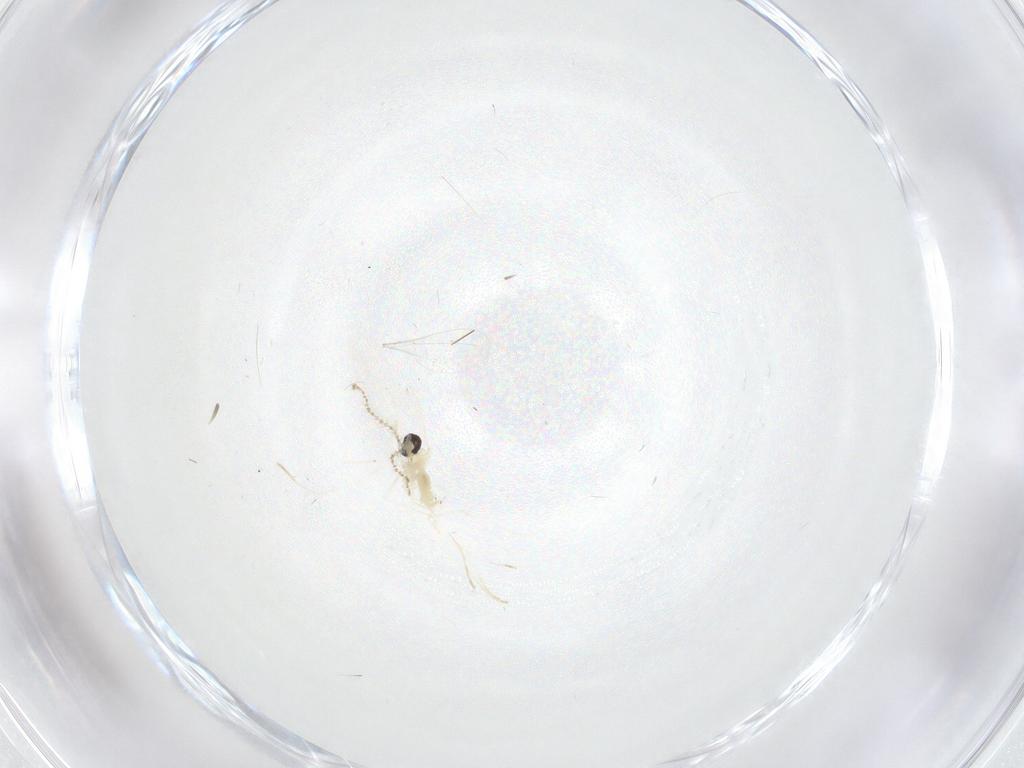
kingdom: Animalia
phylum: Arthropoda
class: Insecta
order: Diptera
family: Cecidomyiidae
